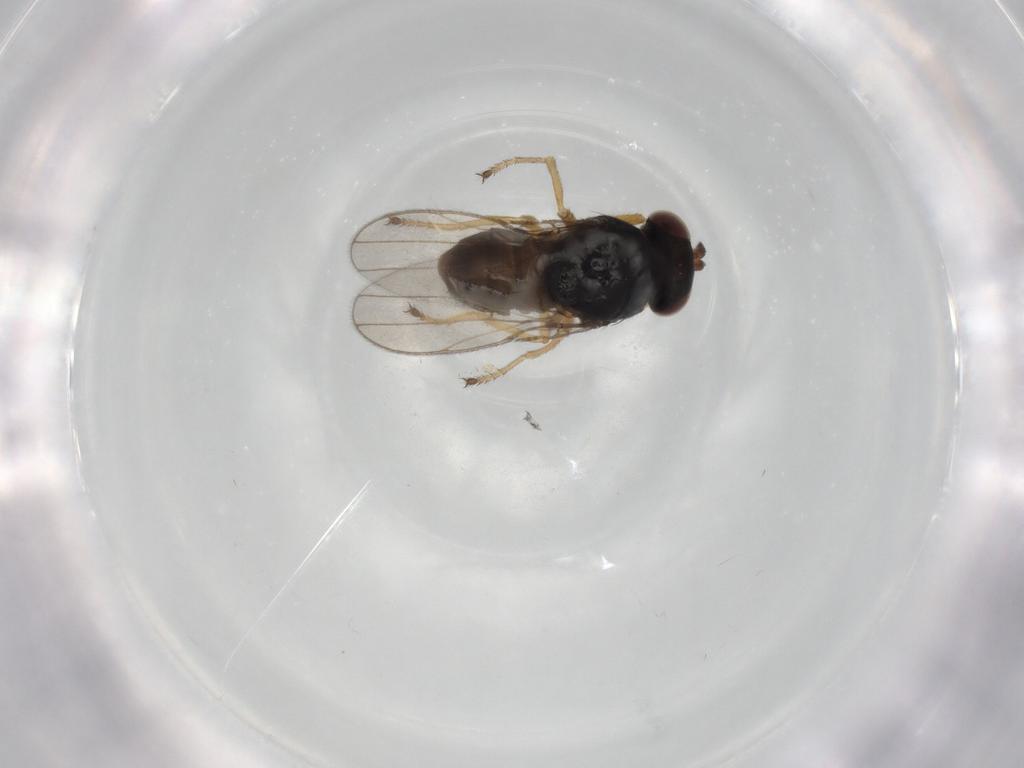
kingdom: Animalia
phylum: Arthropoda
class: Insecta
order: Diptera
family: Ephydridae
